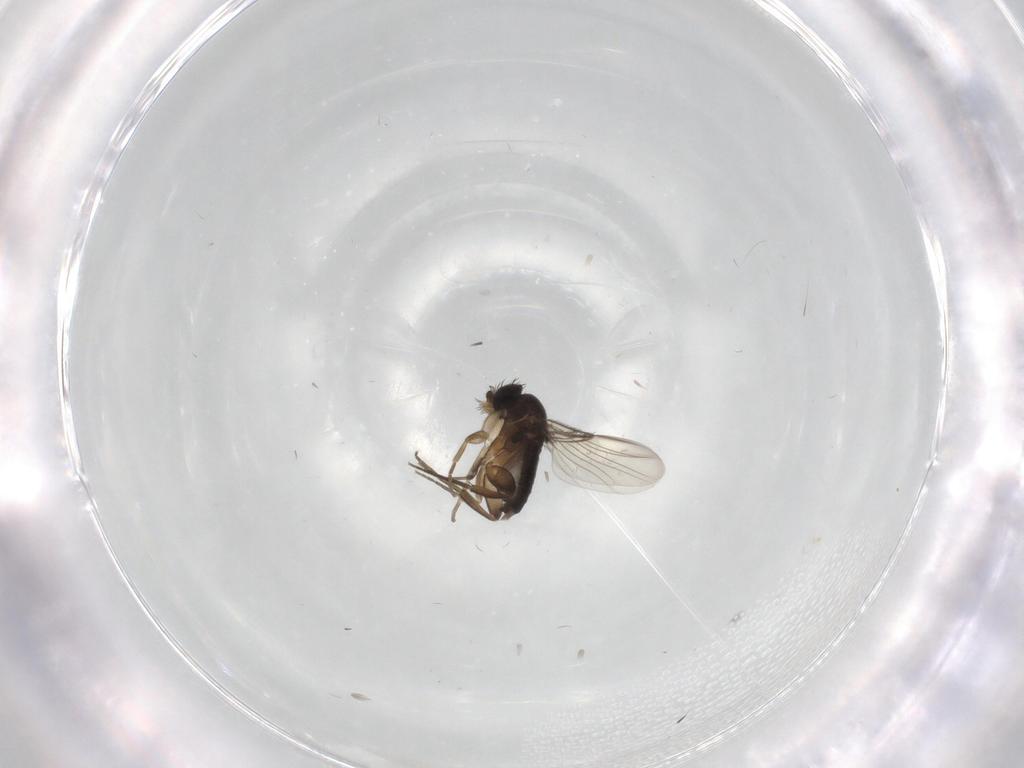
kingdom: Animalia
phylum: Arthropoda
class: Insecta
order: Diptera
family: Phoridae
